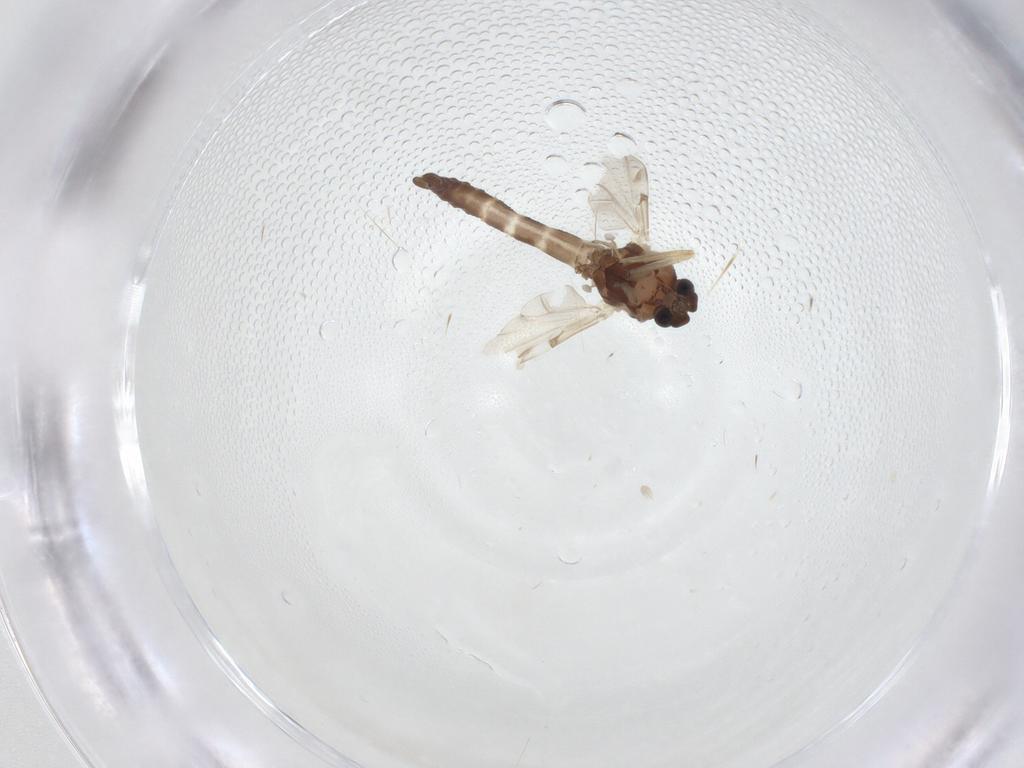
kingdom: Animalia
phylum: Arthropoda
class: Insecta
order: Diptera
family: Ceratopogonidae
